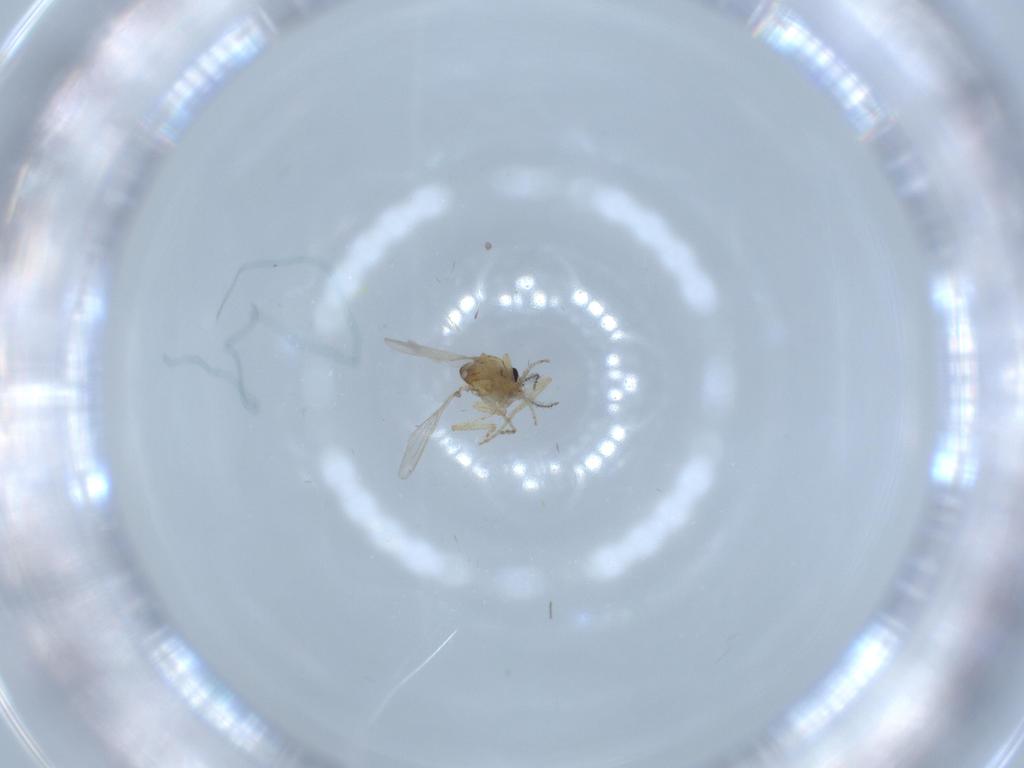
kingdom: Animalia
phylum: Arthropoda
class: Insecta
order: Diptera
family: Ceratopogonidae
